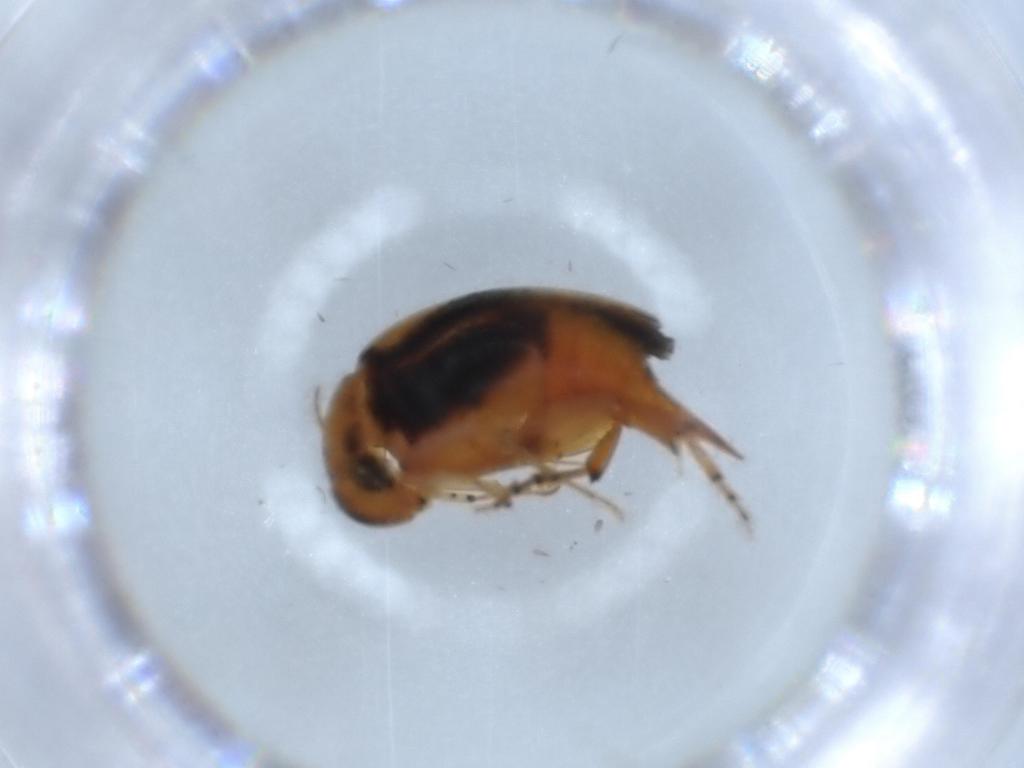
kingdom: Animalia
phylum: Arthropoda
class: Insecta
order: Coleoptera
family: Mordellidae
